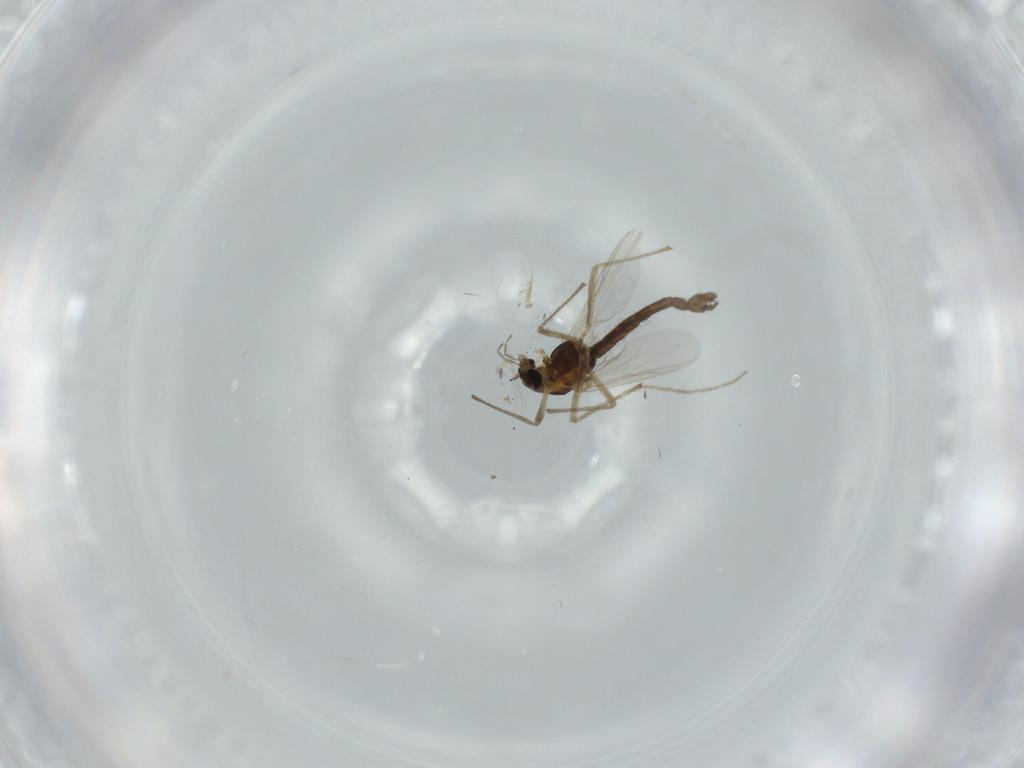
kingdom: Animalia
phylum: Arthropoda
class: Insecta
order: Diptera
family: Chironomidae
